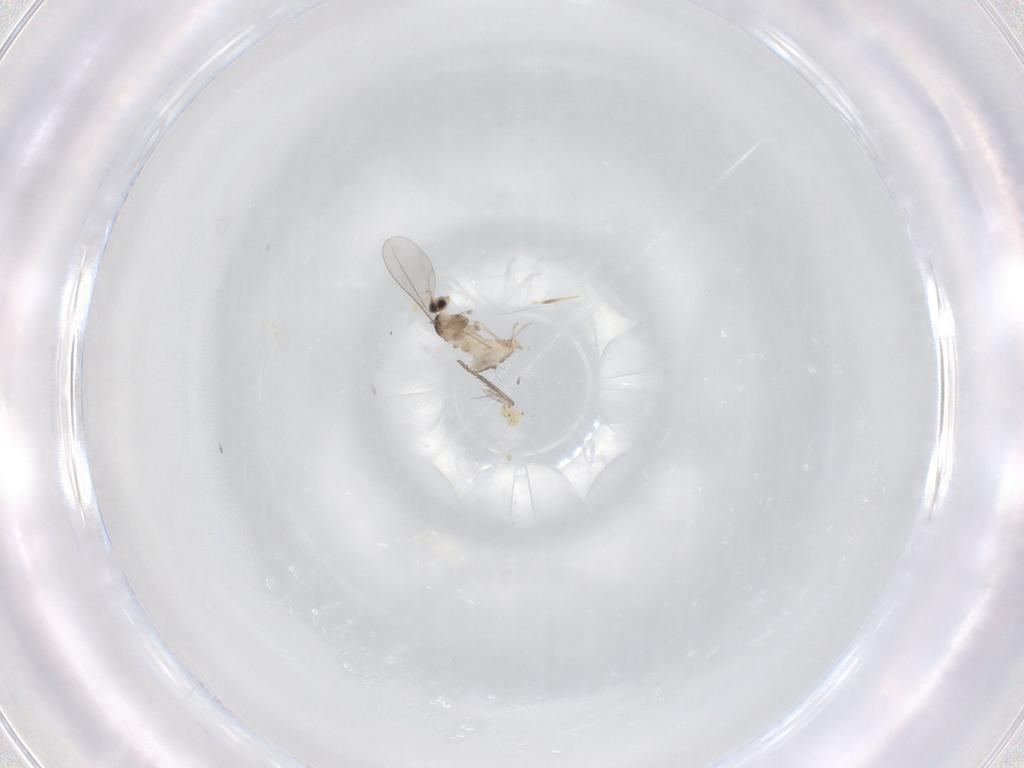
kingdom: Animalia
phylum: Arthropoda
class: Insecta
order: Diptera
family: Cecidomyiidae
